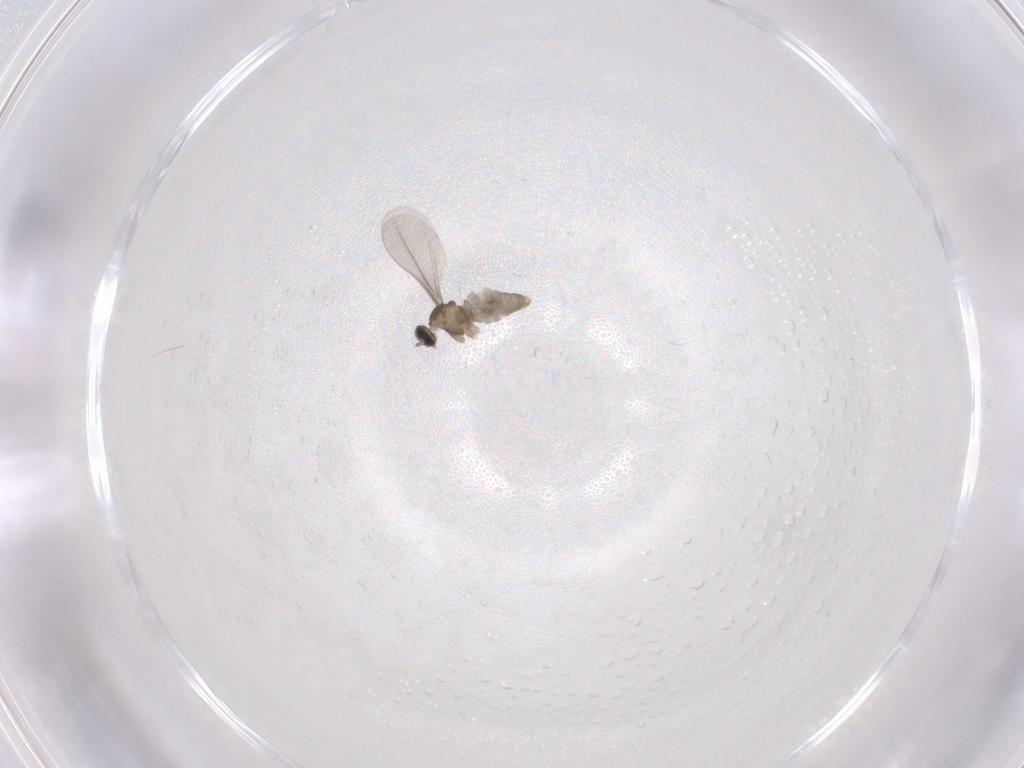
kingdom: Animalia
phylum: Arthropoda
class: Insecta
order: Diptera
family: Cecidomyiidae
